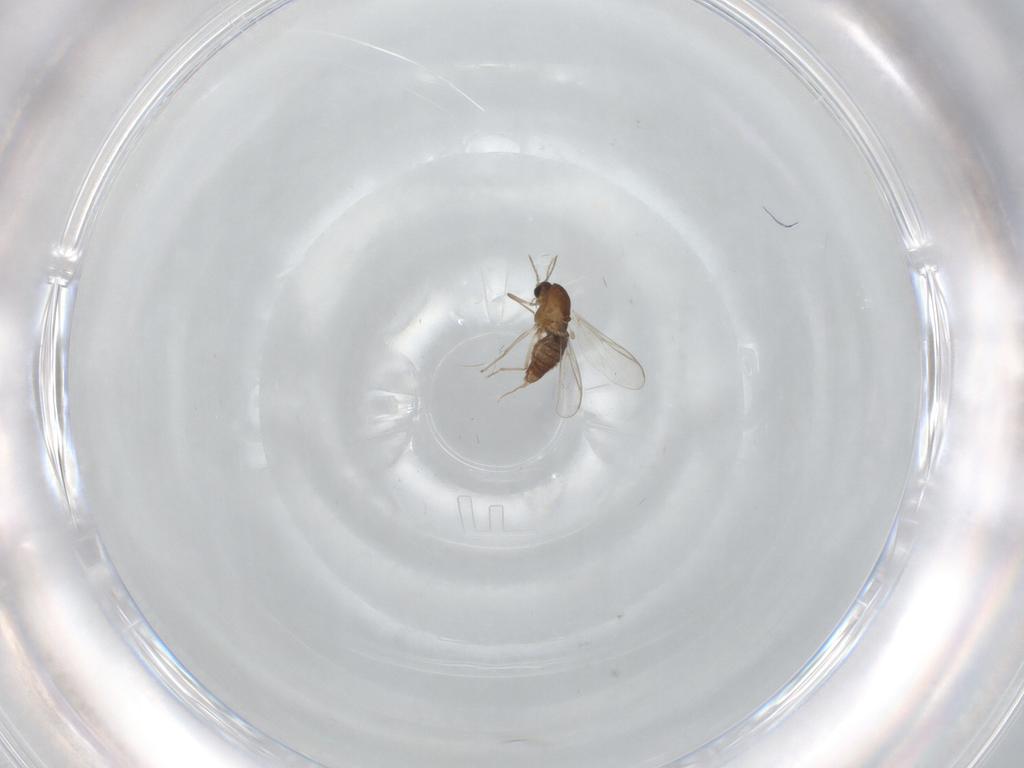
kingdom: Animalia
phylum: Arthropoda
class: Insecta
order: Diptera
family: Chironomidae
